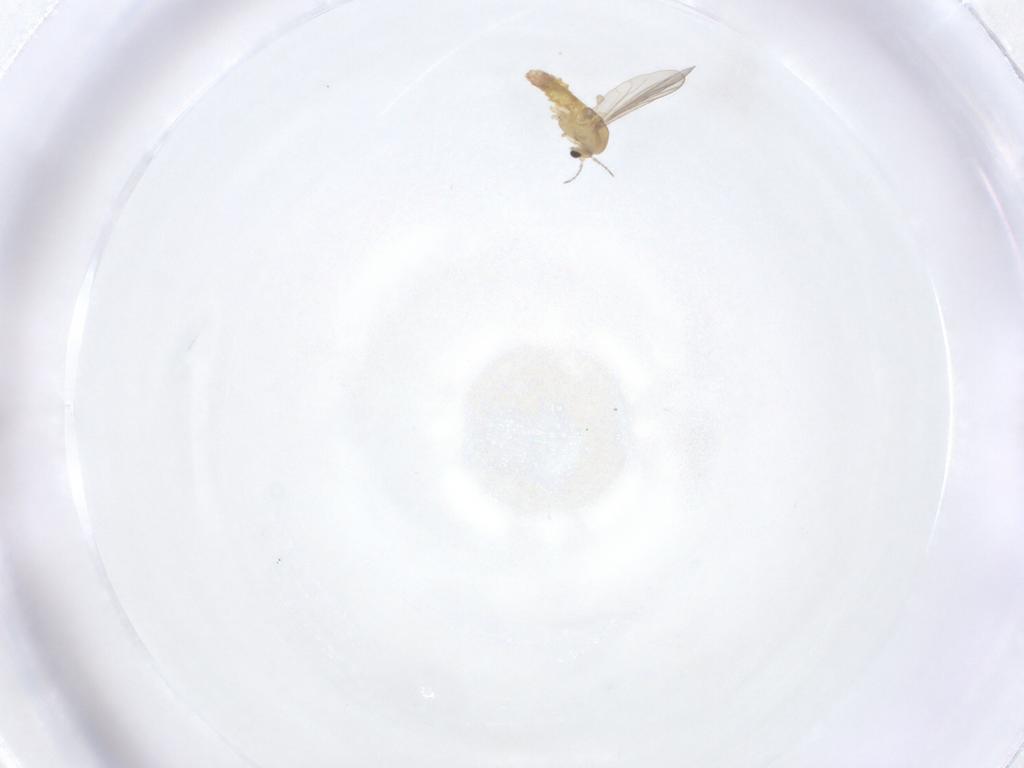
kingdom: Animalia
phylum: Arthropoda
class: Insecta
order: Diptera
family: Chironomidae
